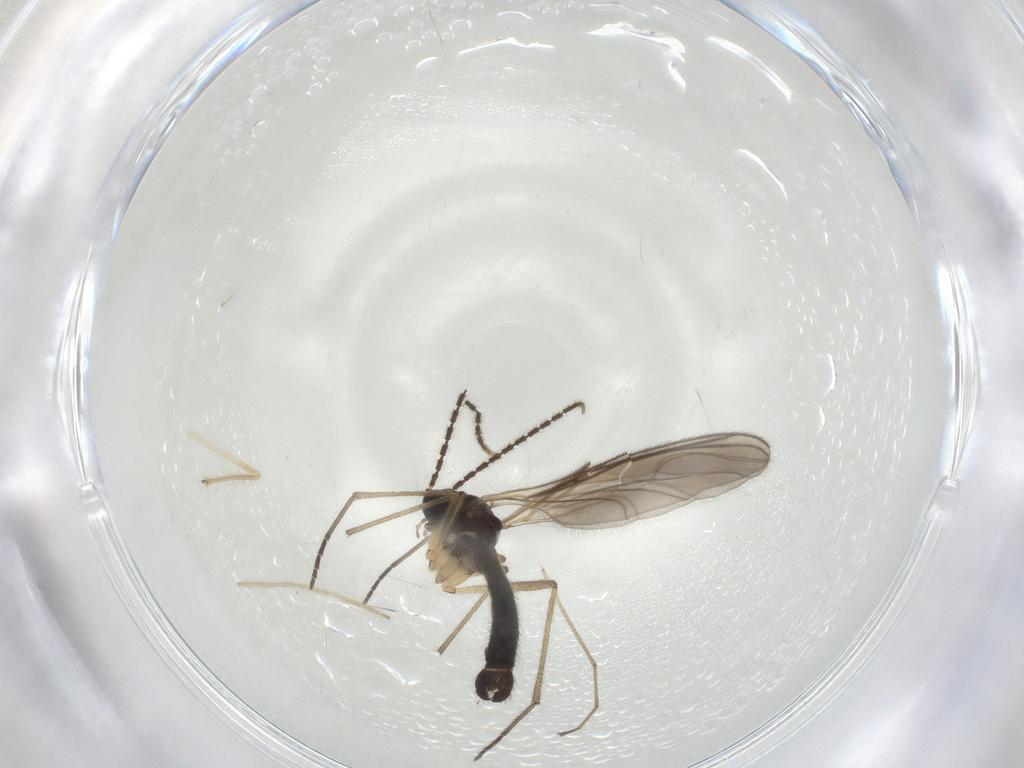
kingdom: Animalia
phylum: Arthropoda
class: Insecta
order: Diptera
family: Sciaridae
